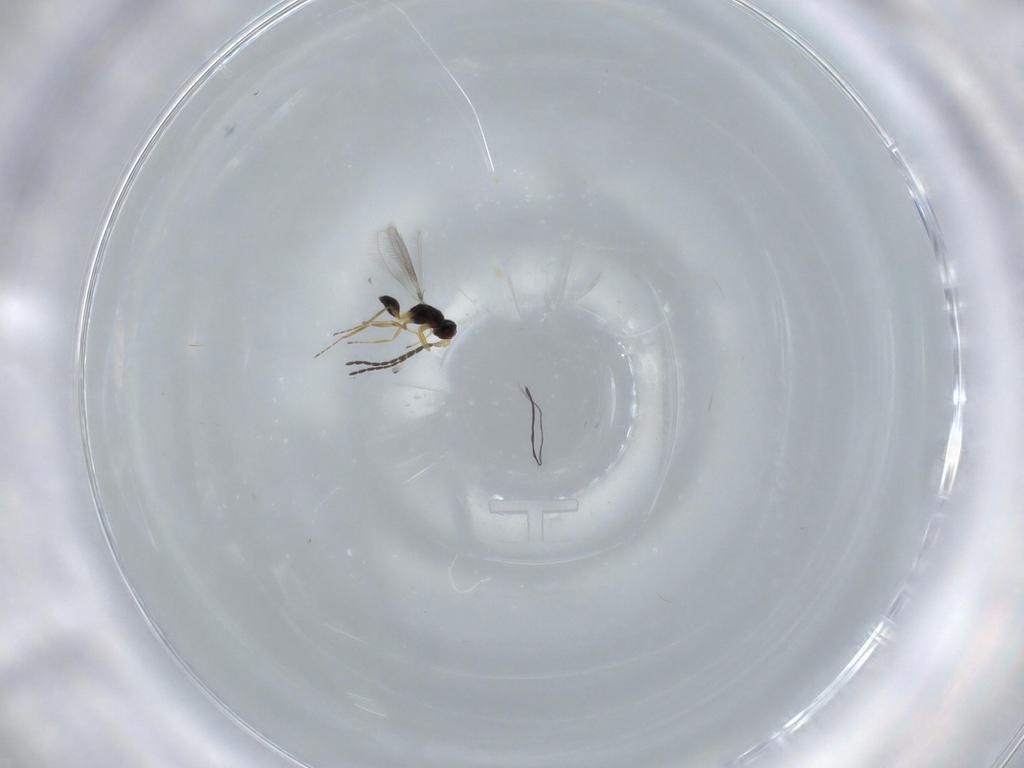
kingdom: Animalia
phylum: Arthropoda
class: Insecta
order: Hymenoptera
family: Mymaridae
